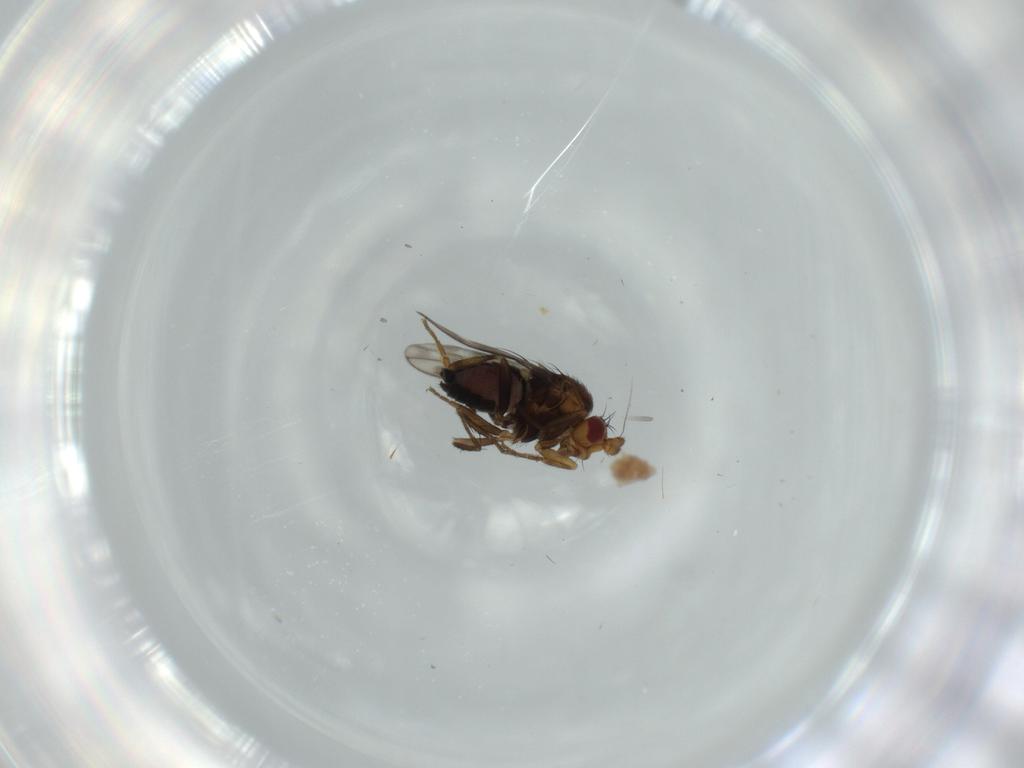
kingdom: Animalia
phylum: Arthropoda
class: Insecta
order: Diptera
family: Sphaeroceridae
